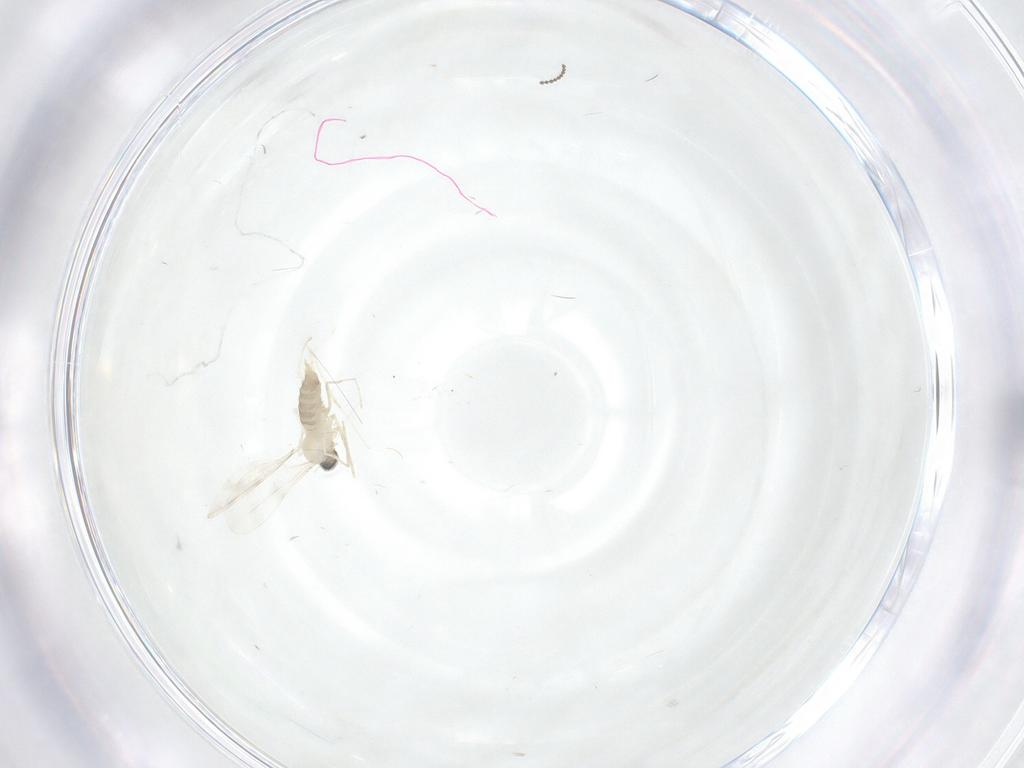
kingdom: Animalia
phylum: Arthropoda
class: Insecta
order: Diptera
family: Cecidomyiidae
